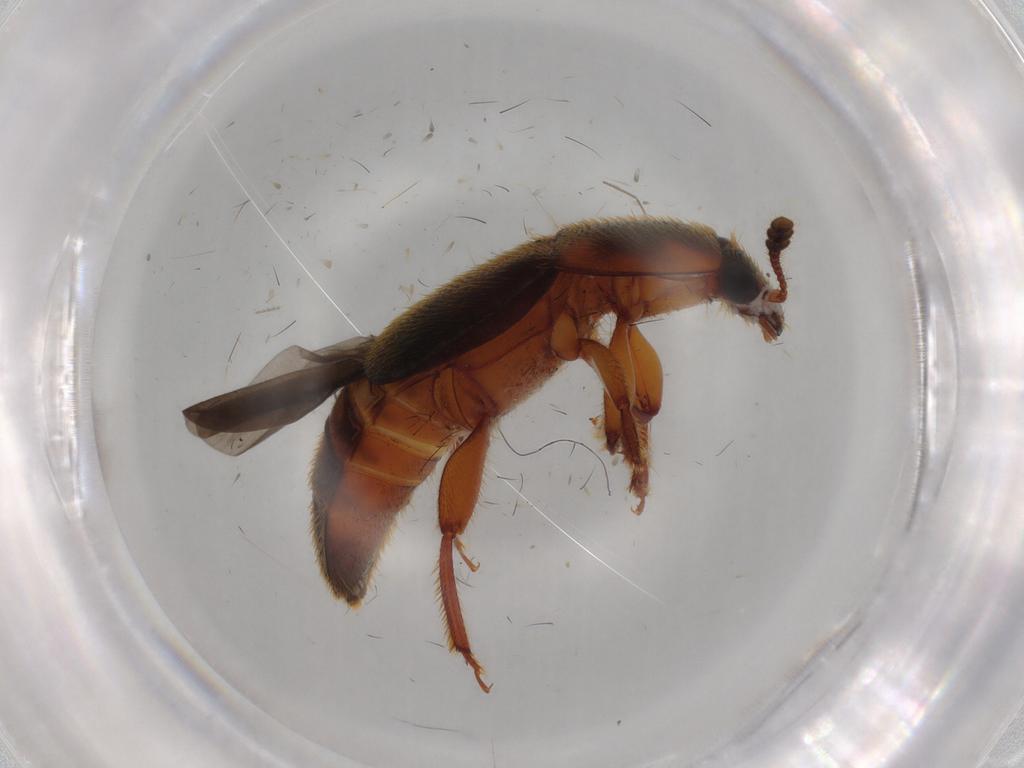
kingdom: Animalia
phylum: Arthropoda
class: Insecta
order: Coleoptera
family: Nitidulidae
